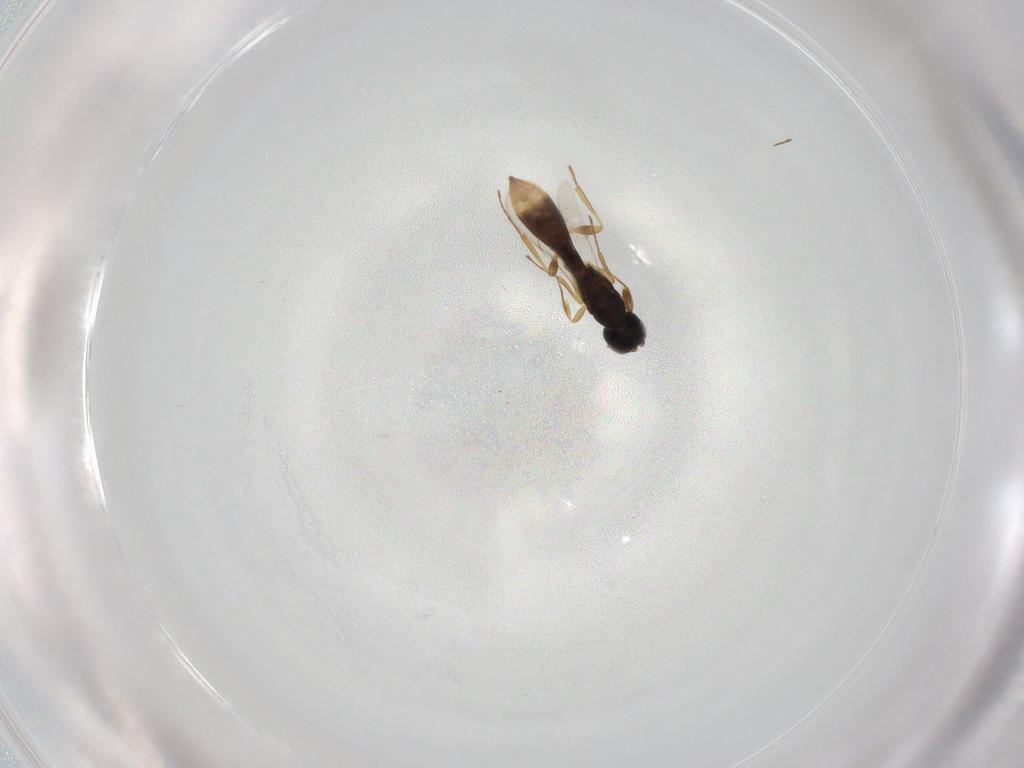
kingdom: Animalia
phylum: Arthropoda
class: Insecta
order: Hymenoptera
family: Scelionidae
